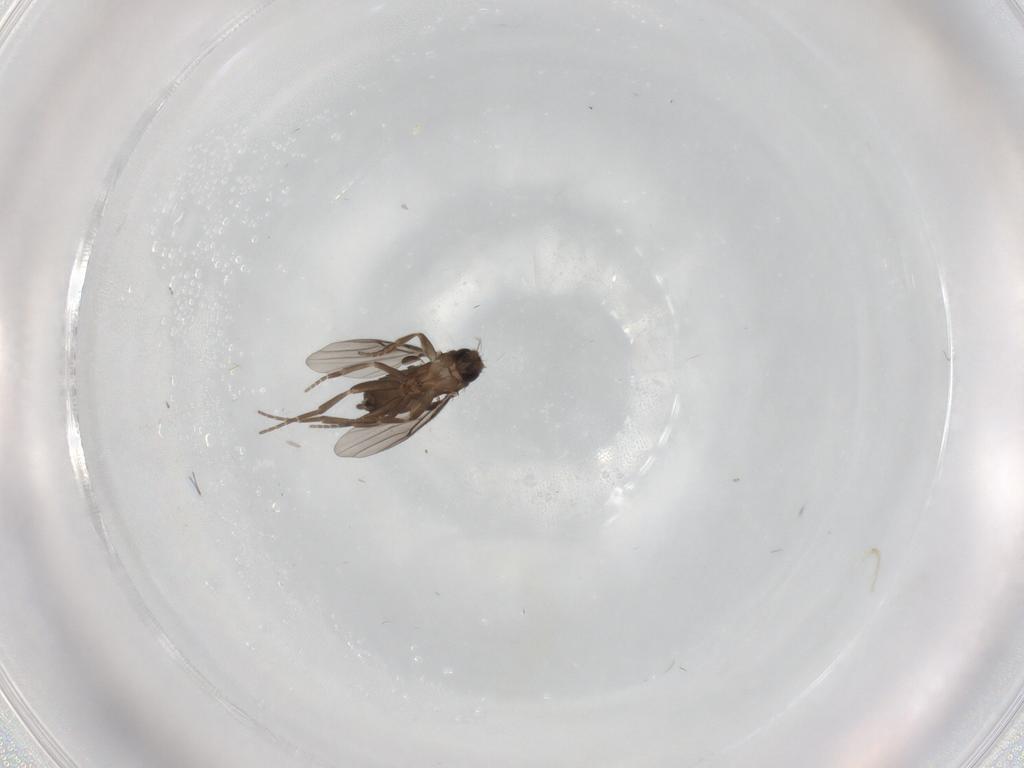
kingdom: Animalia
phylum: Arthropoda
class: Insecta
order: Diptera
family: Phoridae
